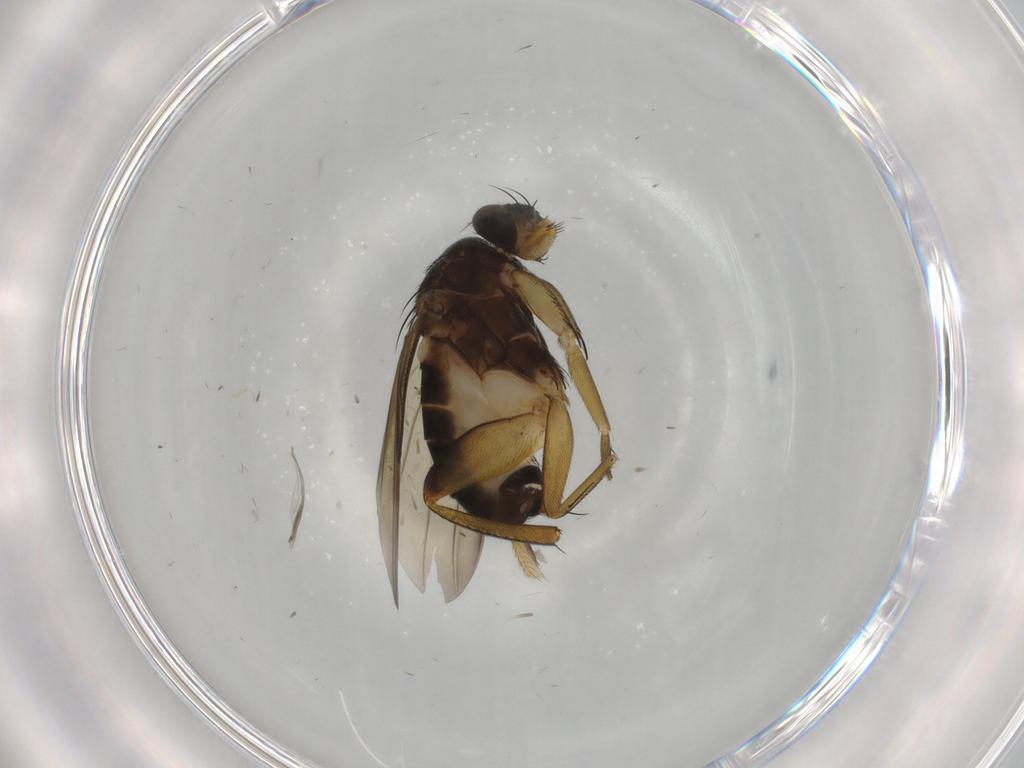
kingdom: Animalia
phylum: Arthropoda
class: Insecta
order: Diptera
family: Phoridae
